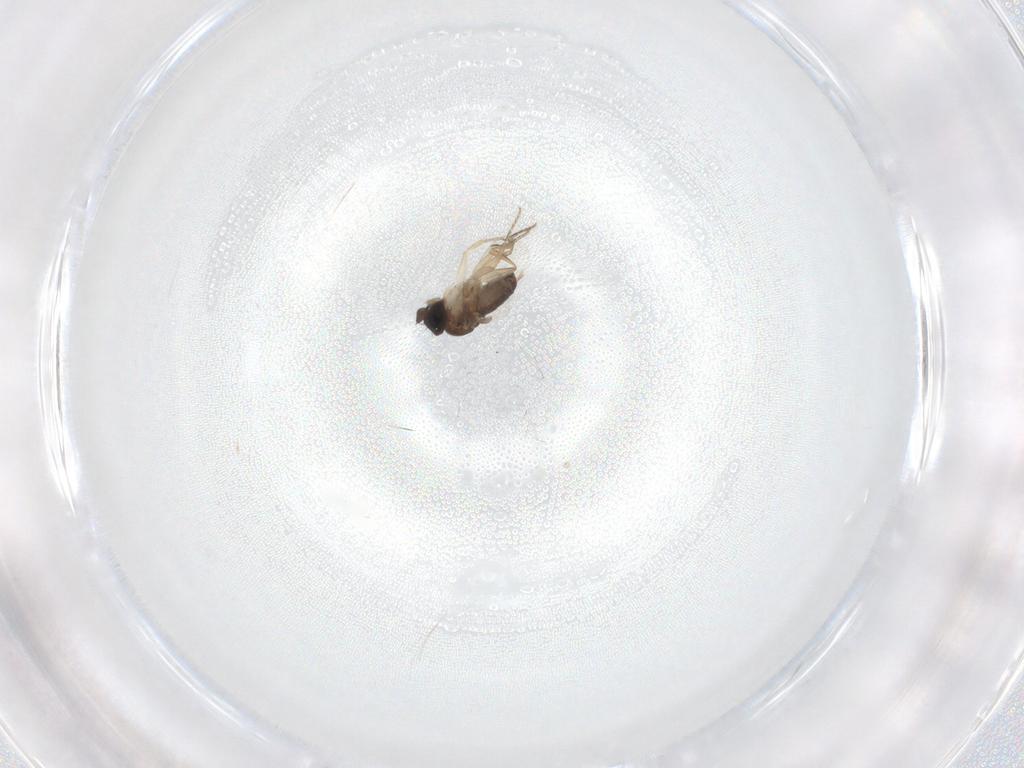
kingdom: Animalia
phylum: Arthropoda
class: Insecta
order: Diptera
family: Phoridae
